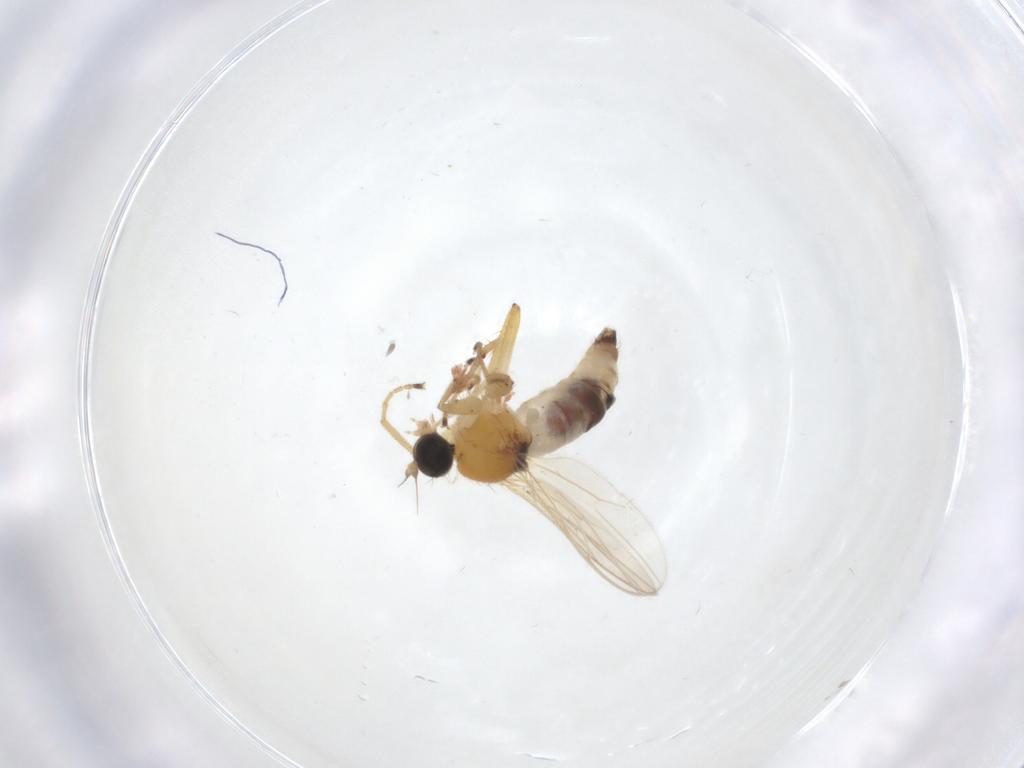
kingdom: Animalia
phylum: Arthropoda
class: Insecta
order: Diptera
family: Hybotidae
